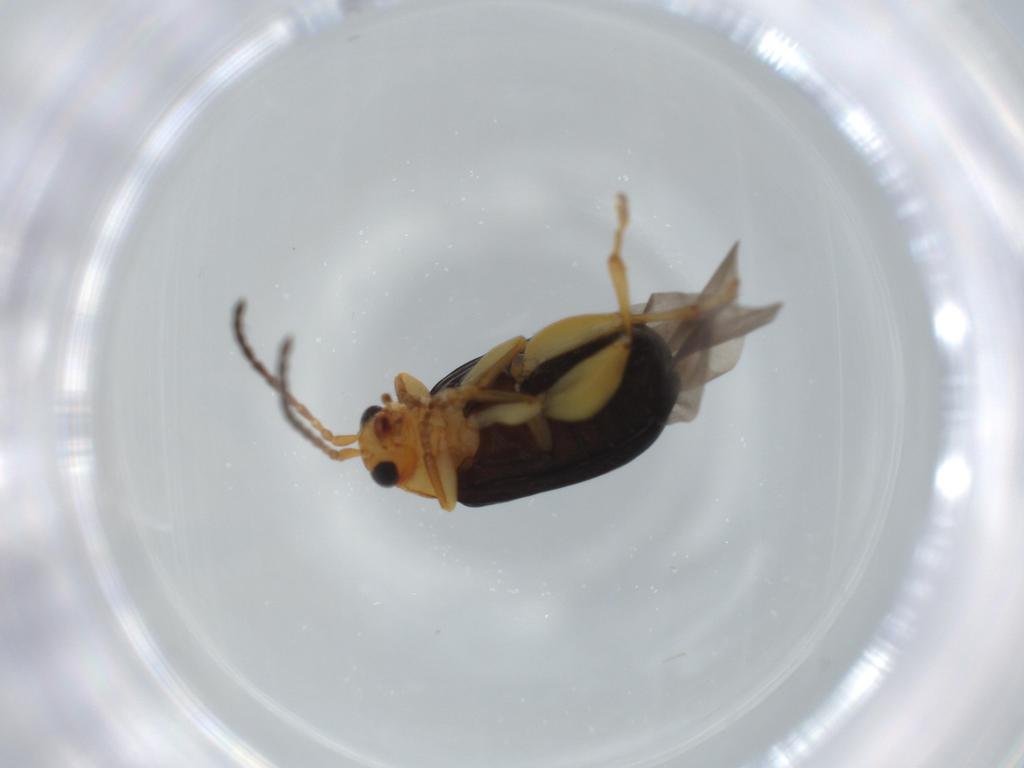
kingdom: Animalia
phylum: Arthropoda
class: Insecta
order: Coleoptera
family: Chrysomelidae
